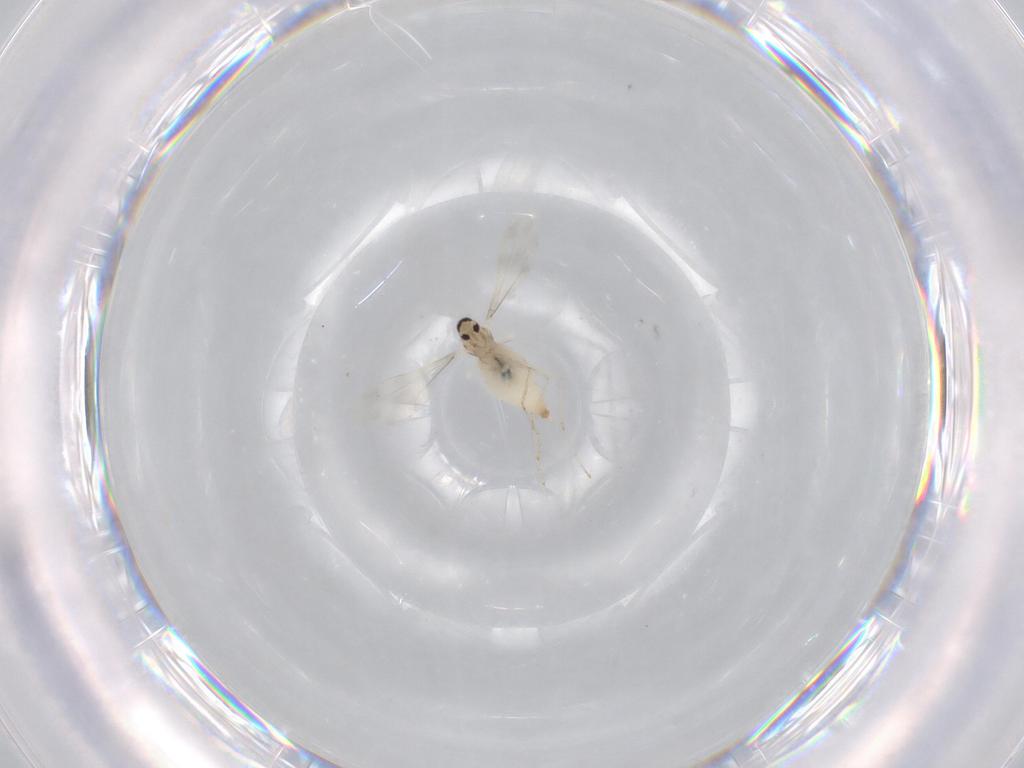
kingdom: Animalia
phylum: Arthropoda
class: Insecta
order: Diptera
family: Cecidomyiidae
